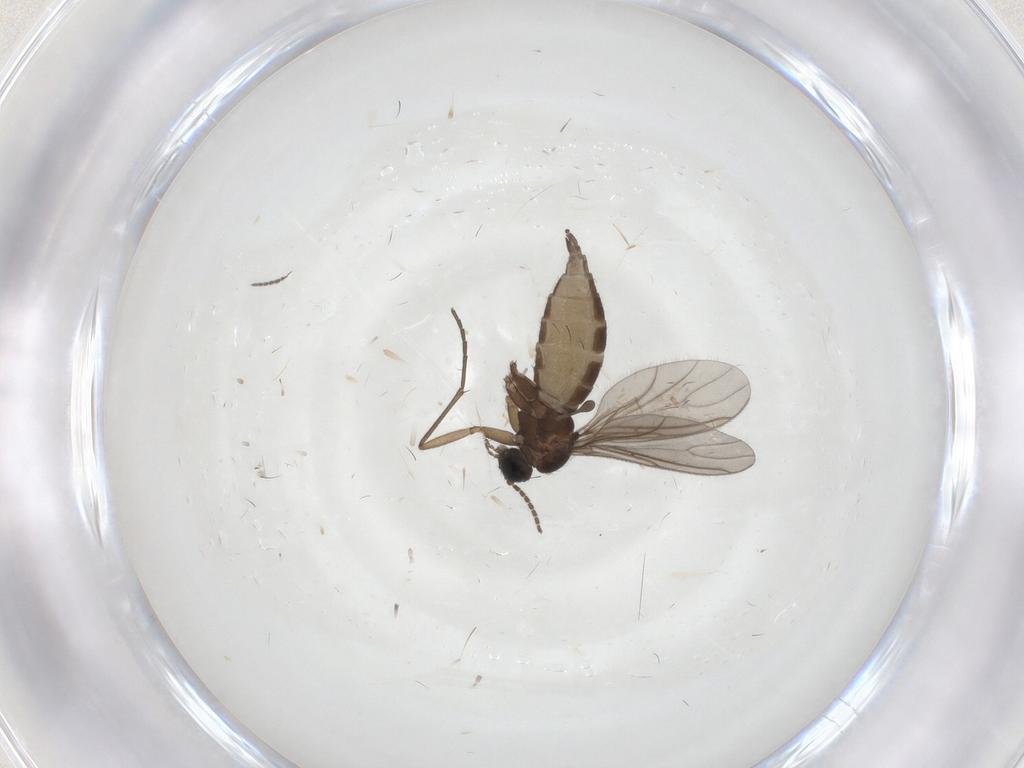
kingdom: Animalia
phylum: Arthropoda
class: Insecta
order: Diptera
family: Sciaridae
